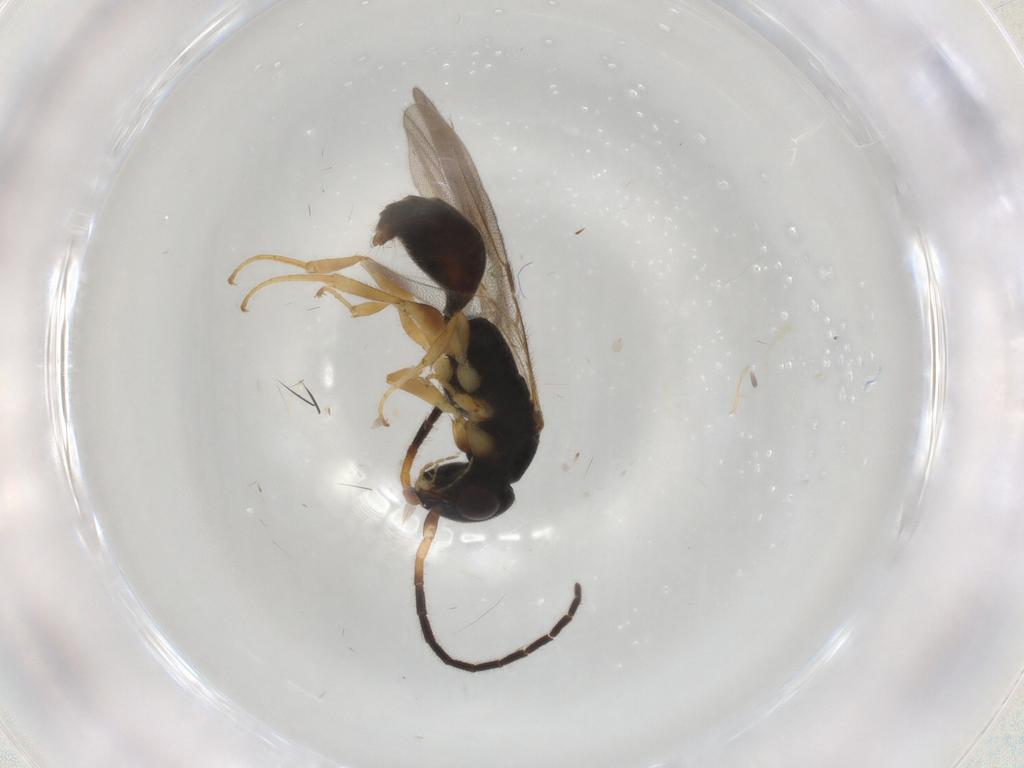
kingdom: Animalia
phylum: Arthropoda
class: Insecta
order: Hymenoptera
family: Bethylidae
